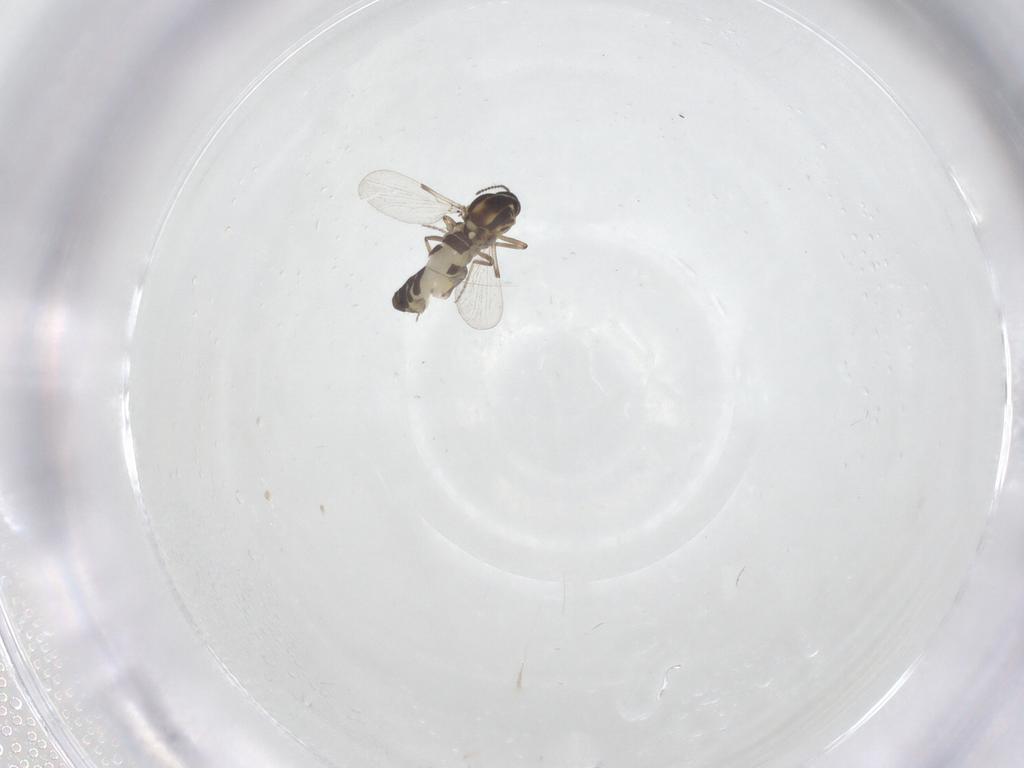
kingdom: Animalia
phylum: Arthropoda
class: Insecta
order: Diptera
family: Ceratopogonidae
